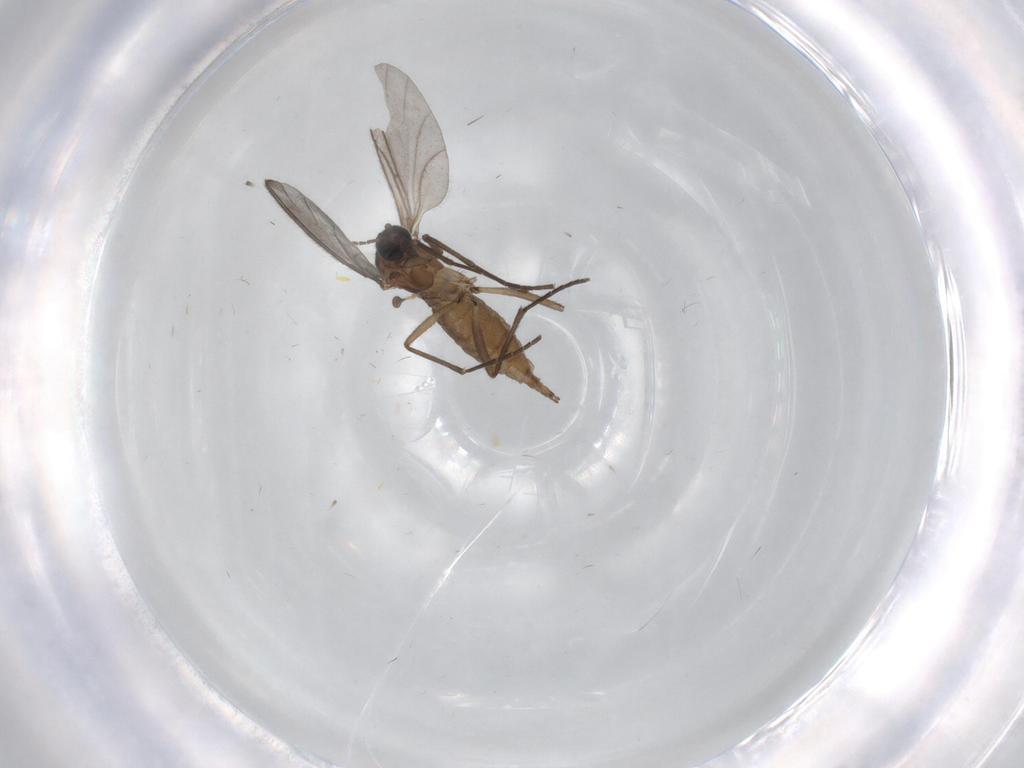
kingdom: Animalia
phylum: Arthropoda
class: Insecta
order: Diptera
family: Sciaridae
